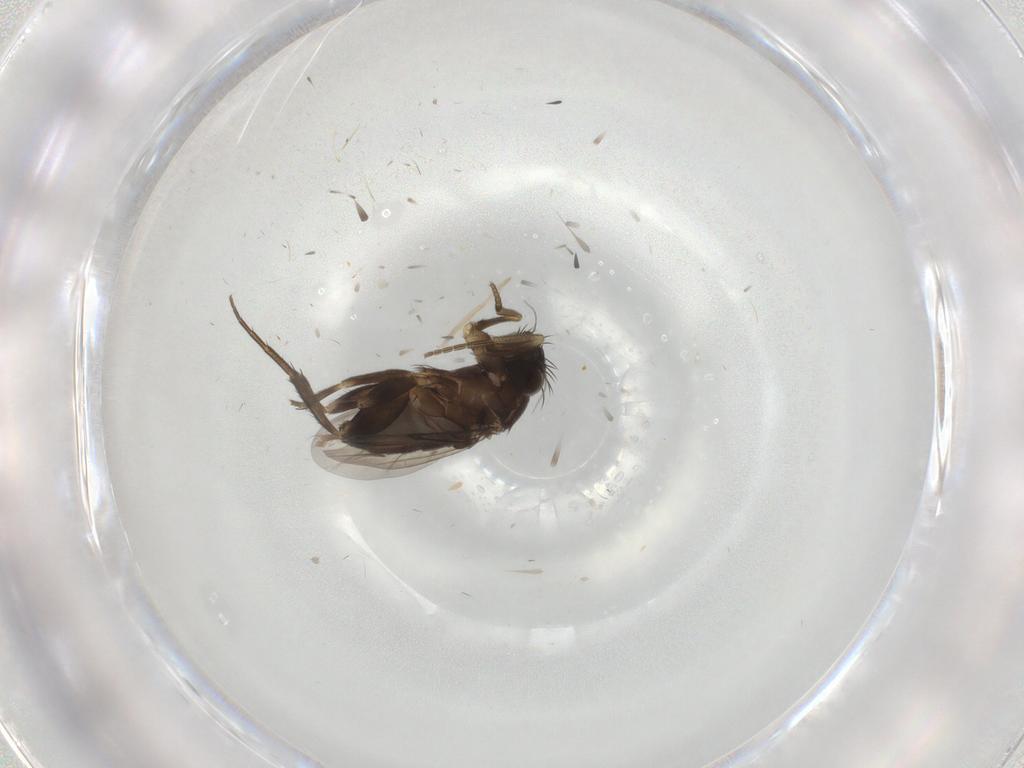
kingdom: Animalia
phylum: Arthropoda
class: Insecta
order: Diptera
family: Phoridae
